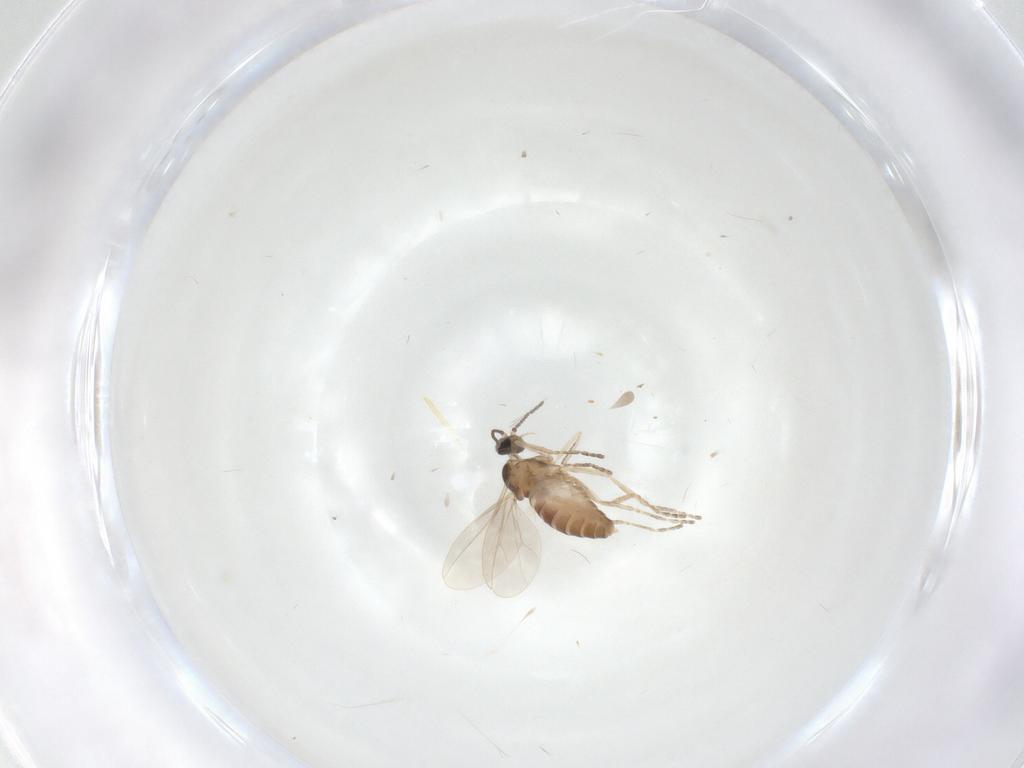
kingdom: Animalia
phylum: Arthropoda
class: Insecta
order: Diptera
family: Cecidomyiidae
